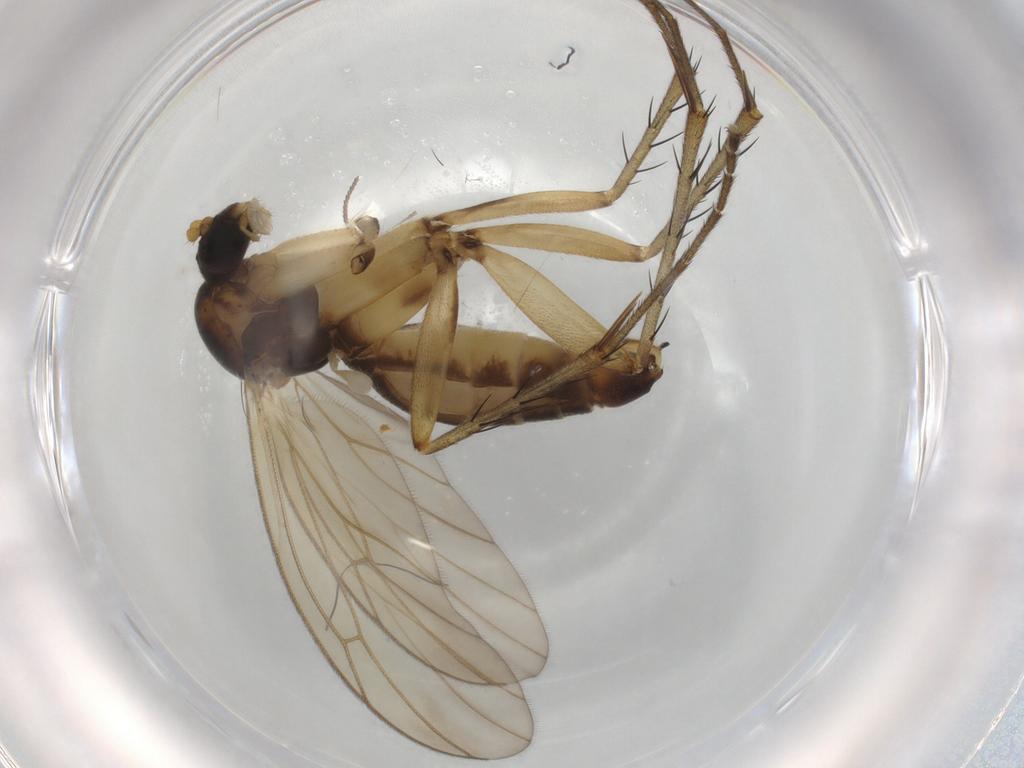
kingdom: Animalia
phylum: Arthropoda
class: Insecta
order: Diptera
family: Mycetophilidae
